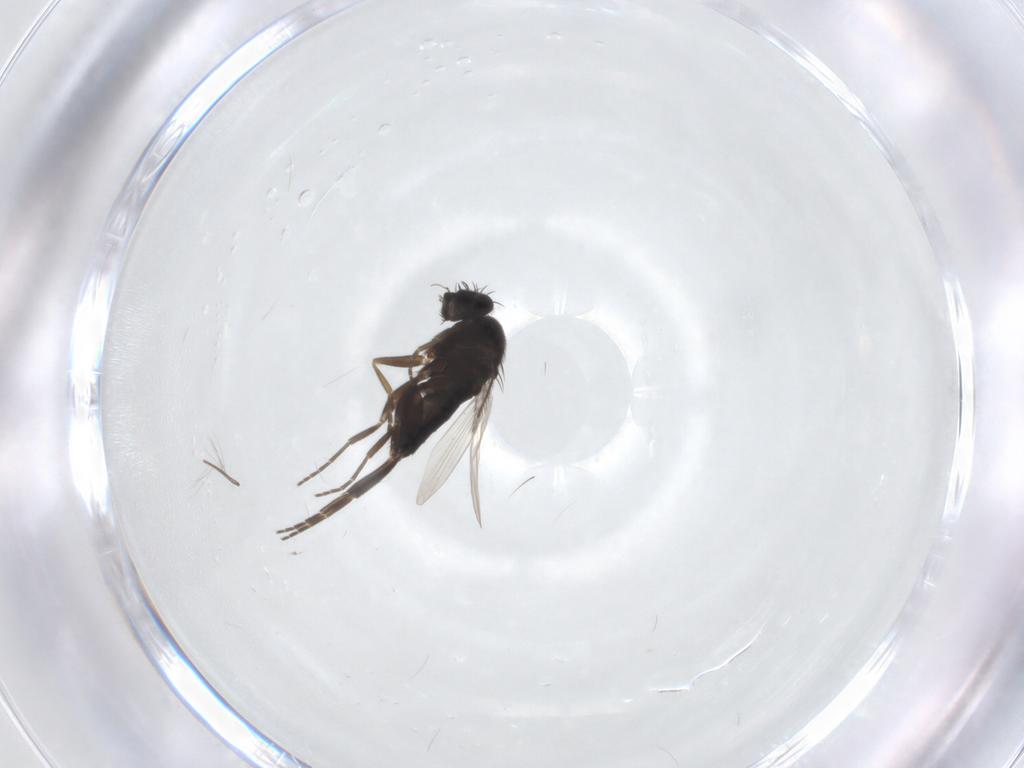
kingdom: Animalia
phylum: Arthropoda
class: Insecta
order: Diptera
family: Phoridae
